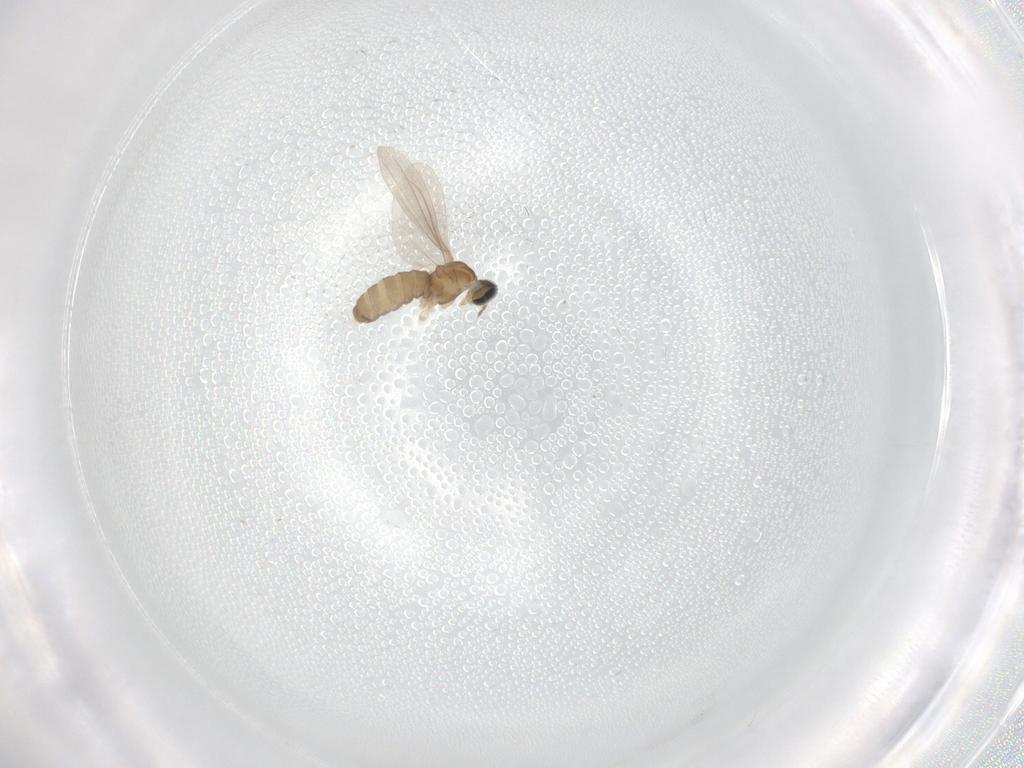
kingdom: Animalia
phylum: Arthropoda
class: Insecta
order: Diptera
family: Cecidomyiidae
